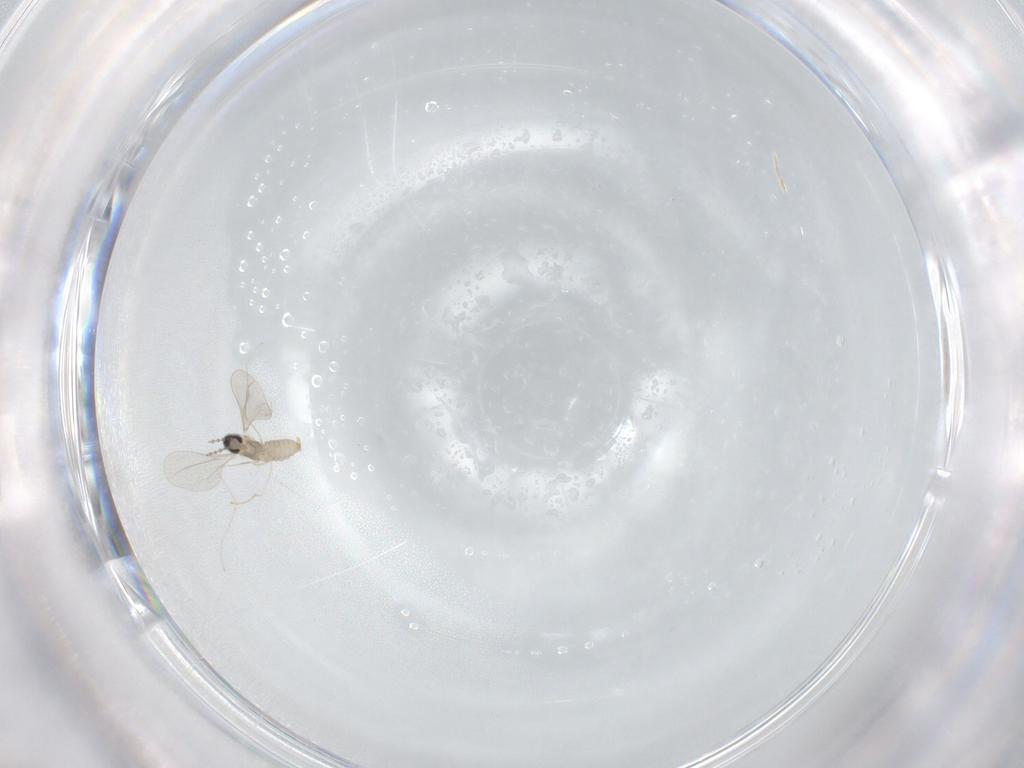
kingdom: Animalia
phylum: Arthropoda
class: Insecta
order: Diptera
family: Cecidomyiidae
